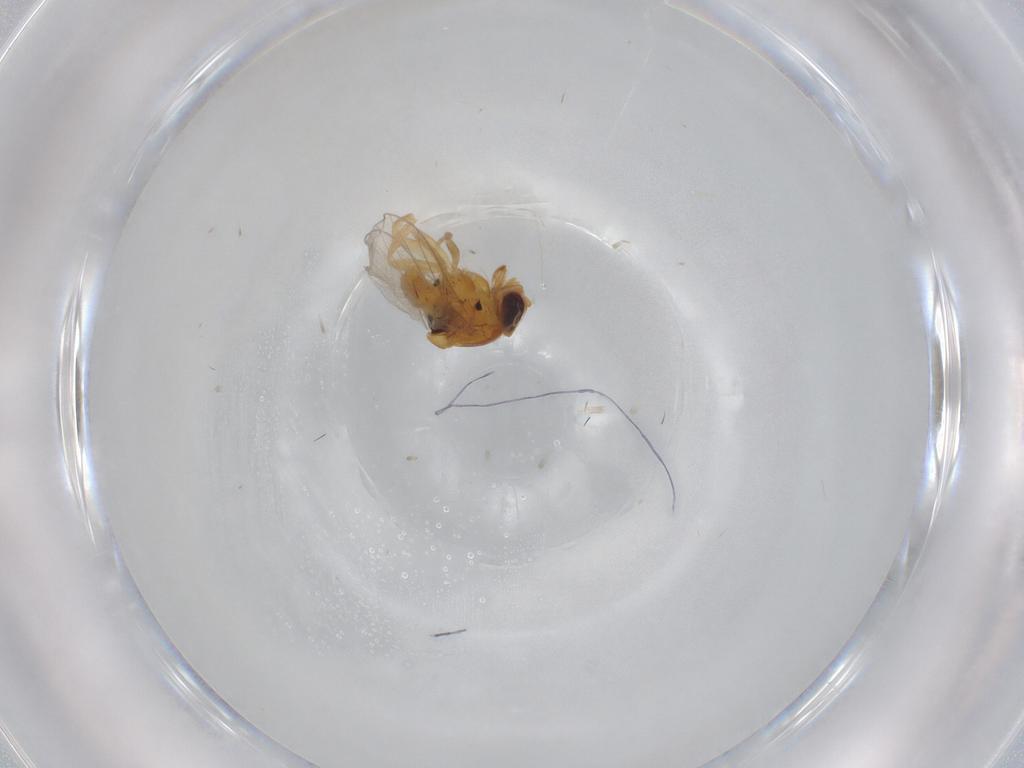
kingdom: Animalia
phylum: Arthropoda
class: Insecta
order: Diptera
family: Chloropidae
